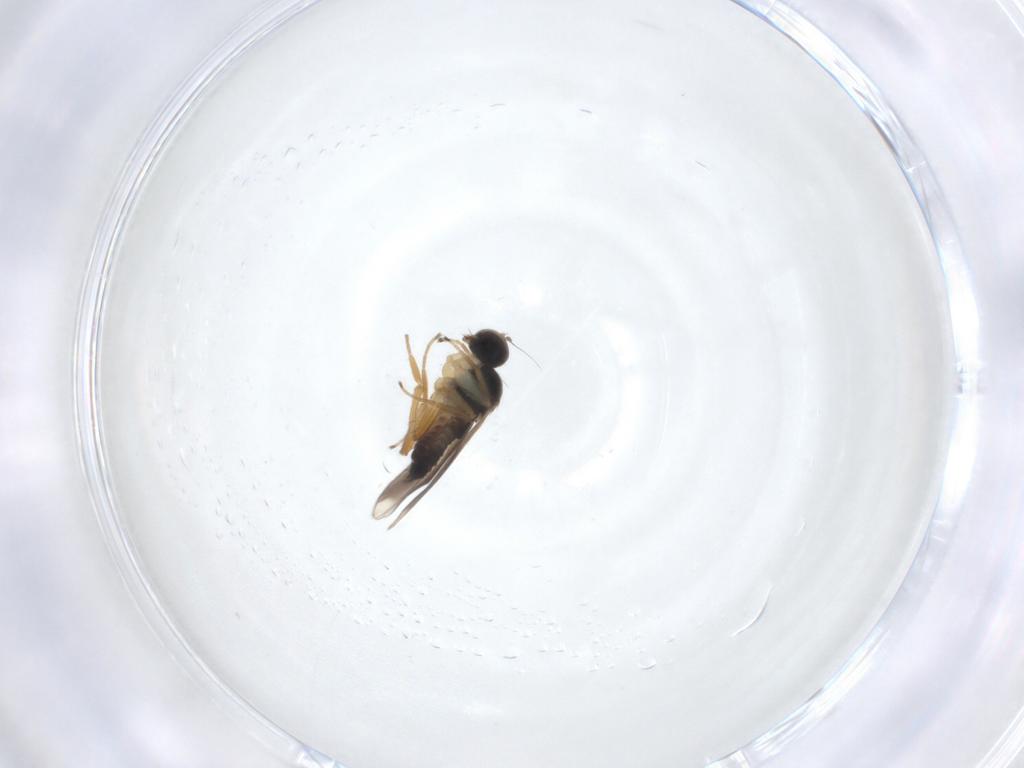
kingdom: Animalia
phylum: Arthropoda
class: Insecta
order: Diptera
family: Hybotidae
